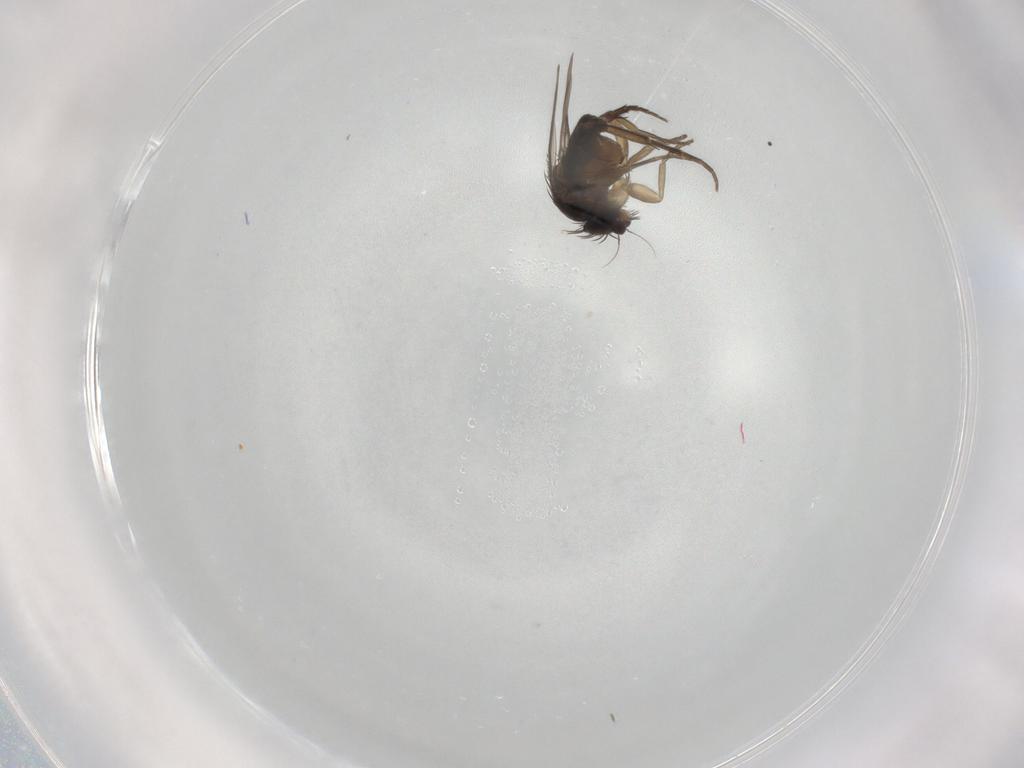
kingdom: Animalia
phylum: Arthropoda
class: Insecta
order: Diptera
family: Phoridae
